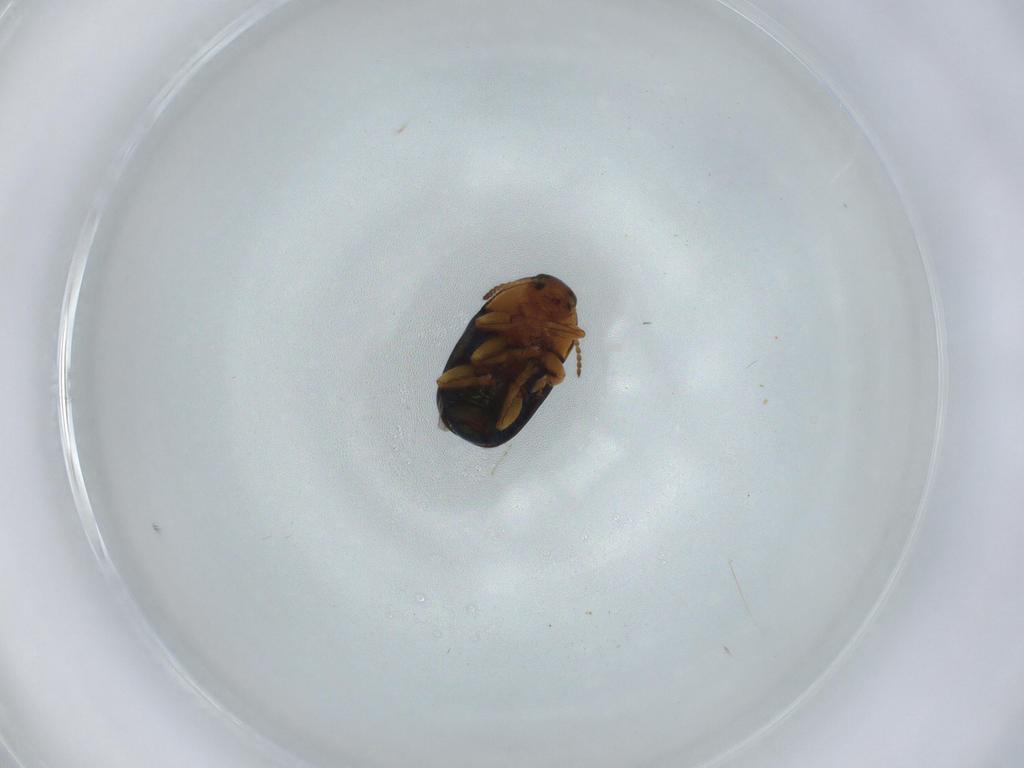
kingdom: Animalia
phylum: Arthropoda
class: Insecta
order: Coleoptera
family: Chrysomelidae
